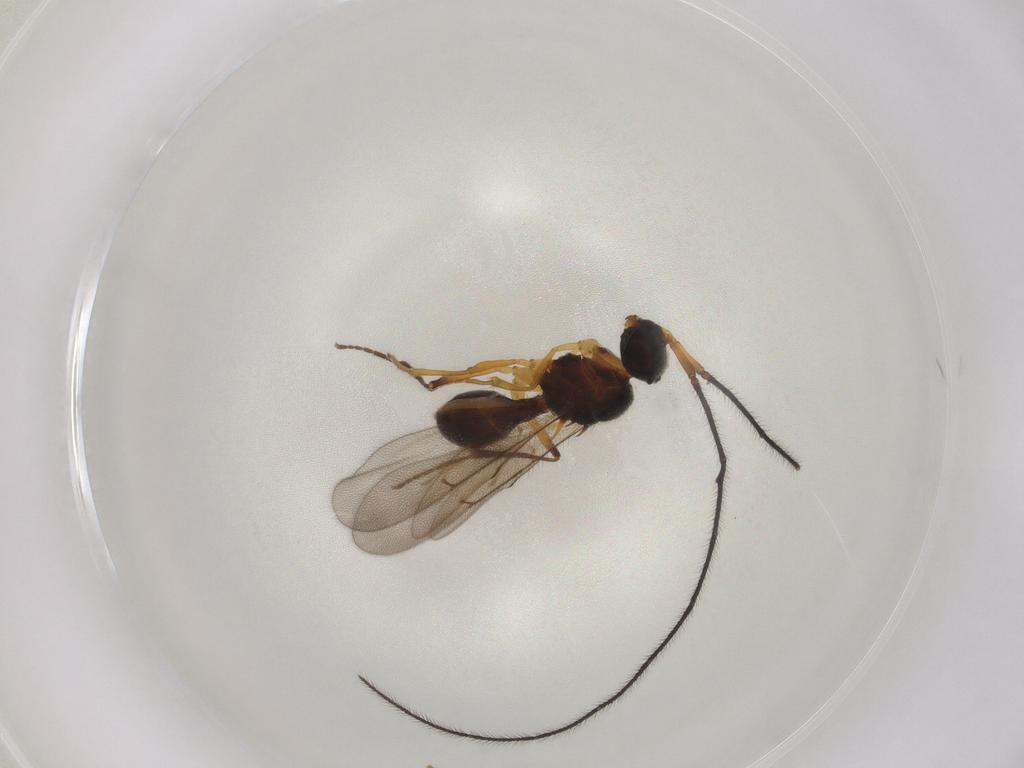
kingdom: Animalia
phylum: Arthropoda
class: Insecta
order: Hymenoptera
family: Scelionidae
